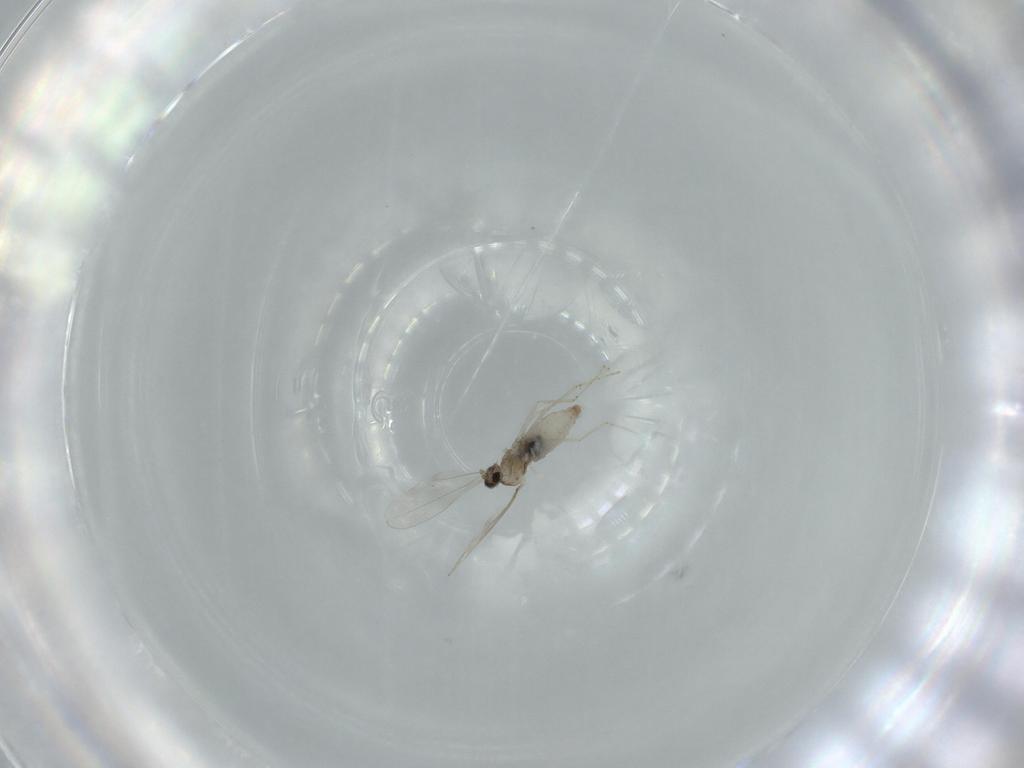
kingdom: Animalia
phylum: Arthropoda
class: Insecta
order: Diptera
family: Cecidomyiidae
